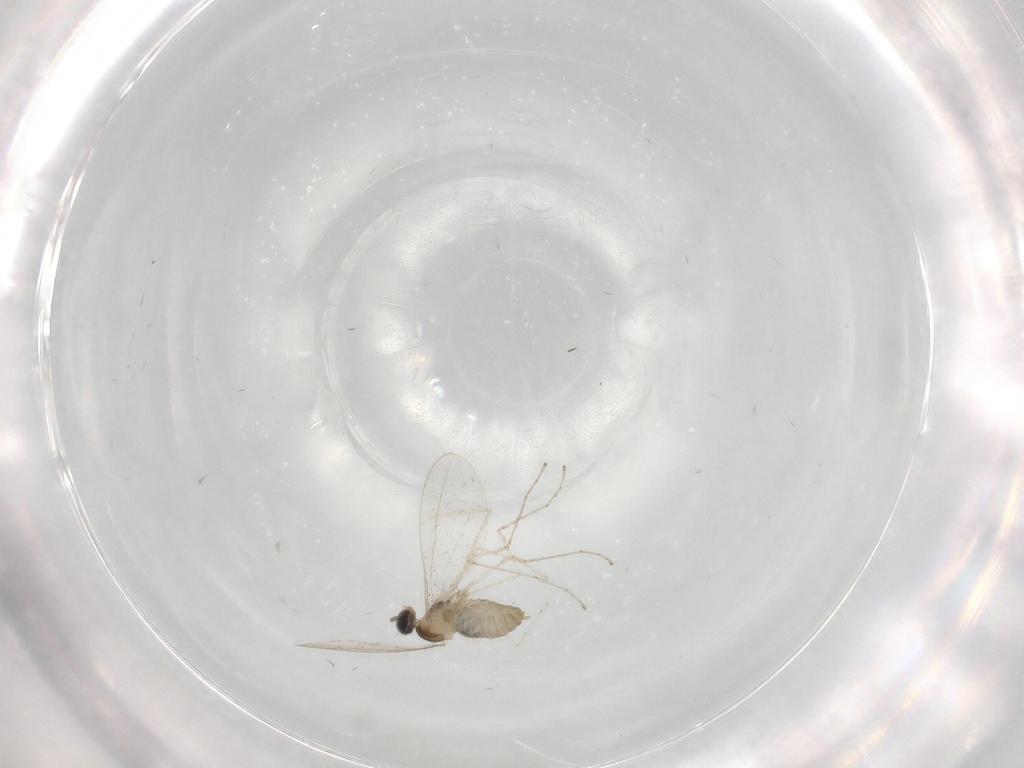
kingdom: Animalia
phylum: Arthropoda
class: Insecta
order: Diptera
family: Cecidomyiidae
